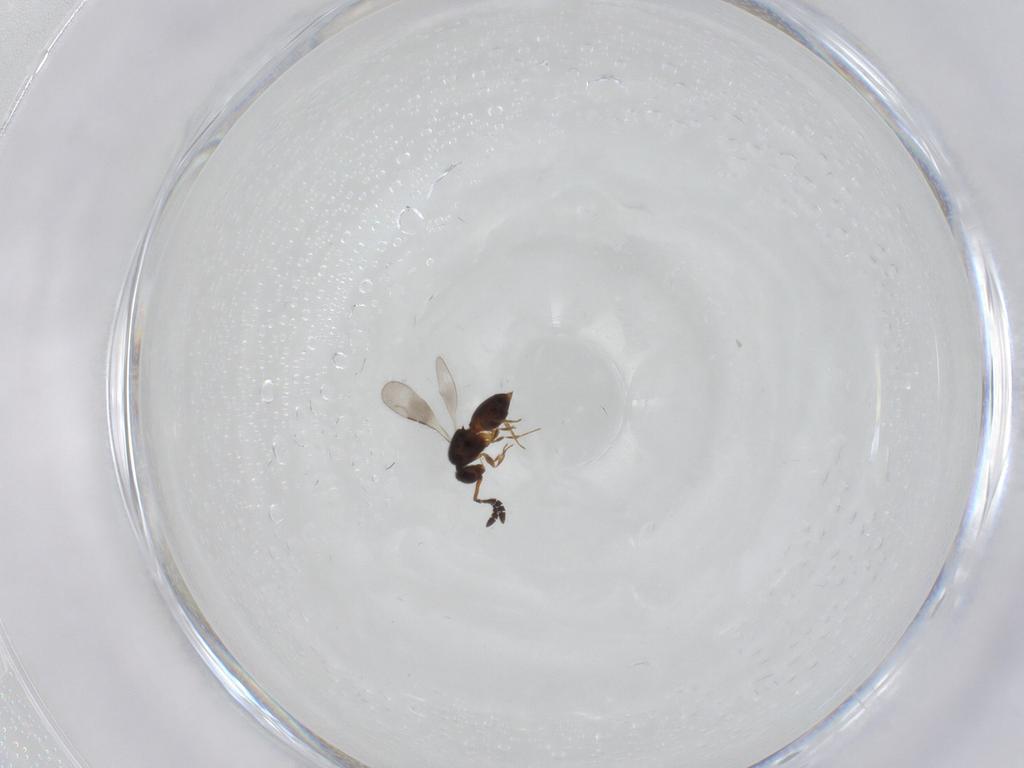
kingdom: Animalia
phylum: Arthropoda
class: Insecta
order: Hymenoptera
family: Ceraphronidae
